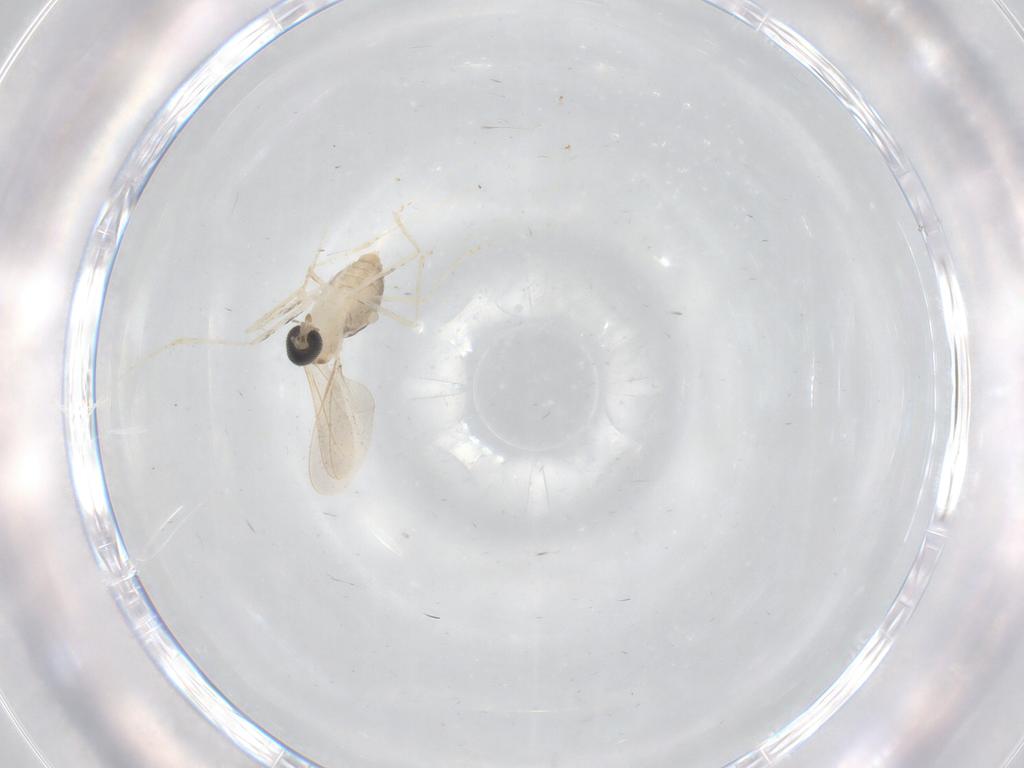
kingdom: Animalia
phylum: Arthropoda
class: Insecta
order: Diptera
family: Cecidomyiidae
